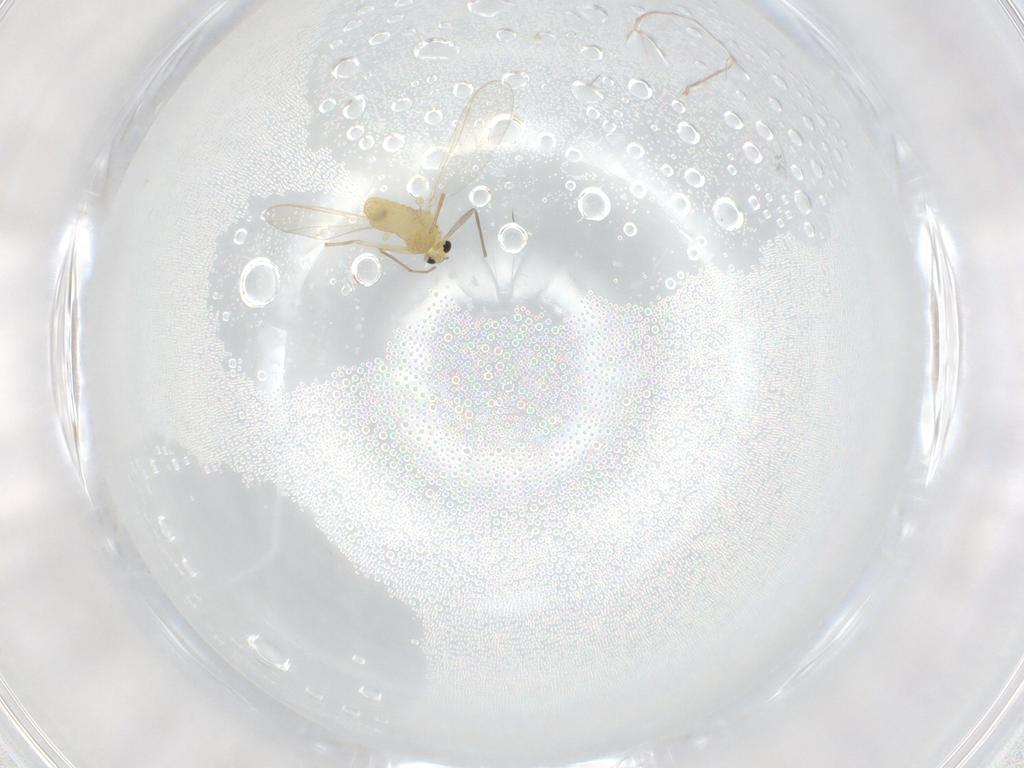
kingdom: Animalia
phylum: Arthropoda
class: Insecta
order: Diptera
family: Chironomidae
